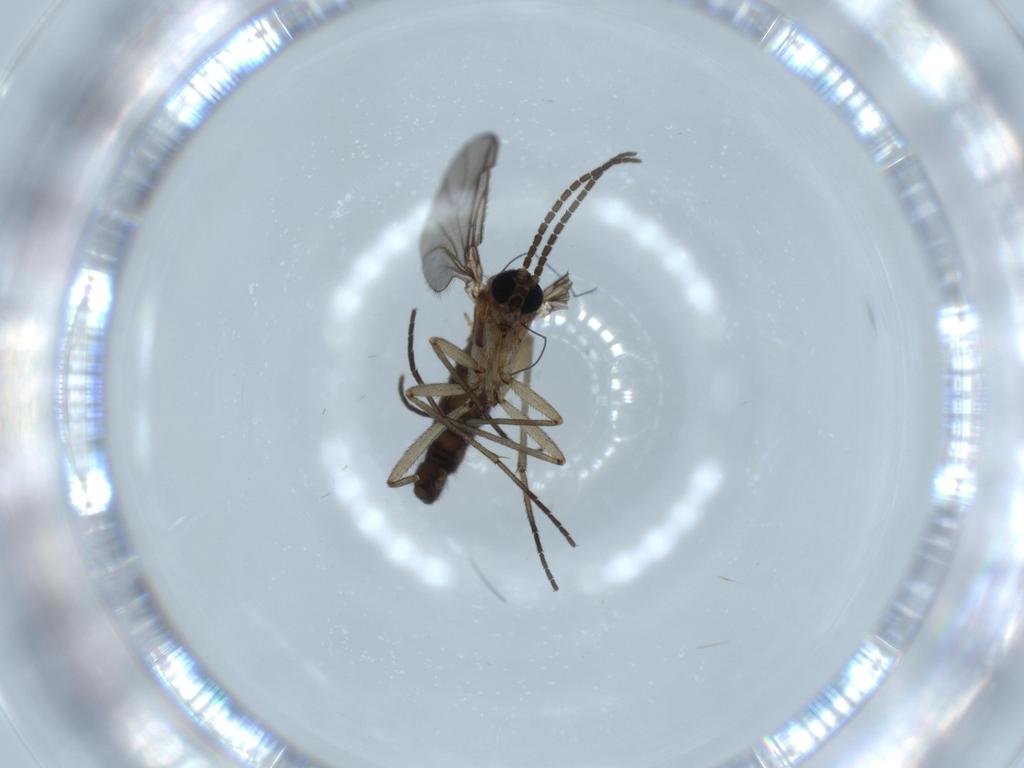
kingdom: Animalia
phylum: Arthropoda
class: Insecta
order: Diptera
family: Sciaridae
